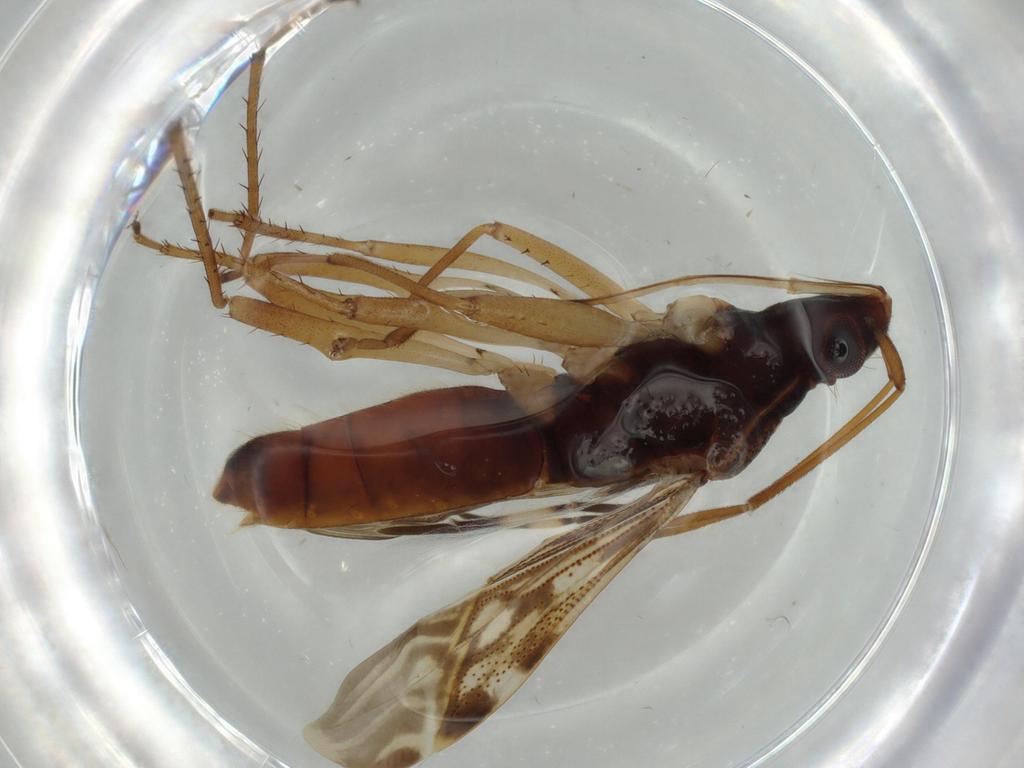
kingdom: Animalia
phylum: Arthropoda
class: Insecta
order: Hemiptera
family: Rhyparochromidae
